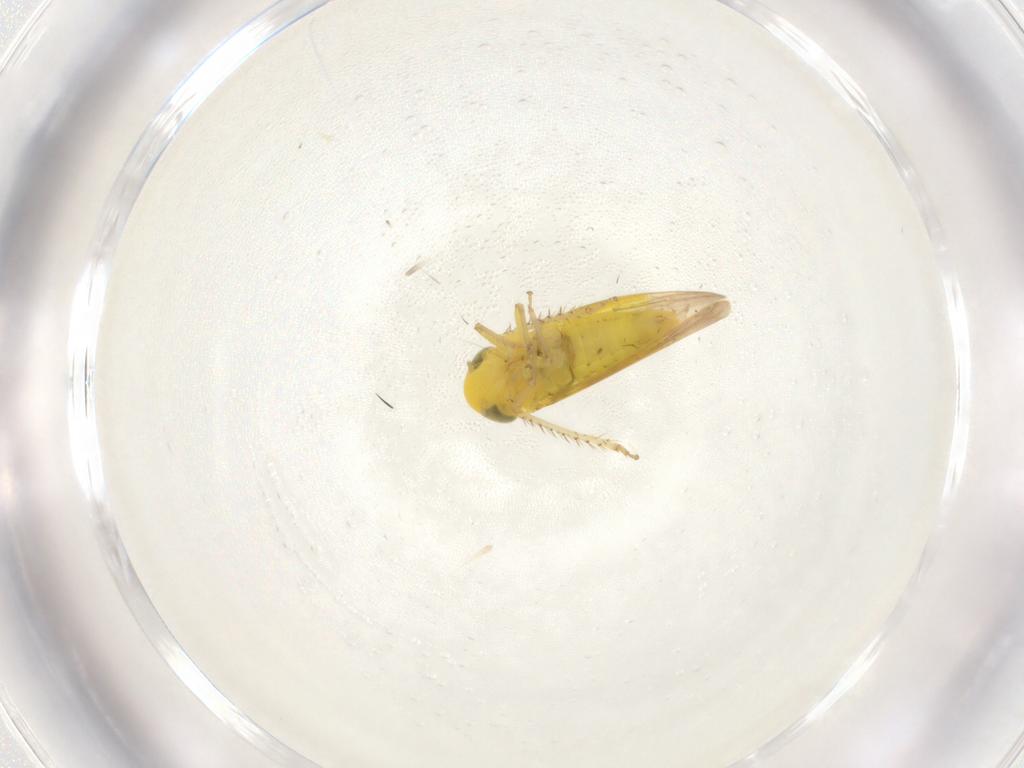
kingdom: Animalia
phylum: Arthropoda
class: Insecta
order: Hemiptera
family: Cicadellidae
